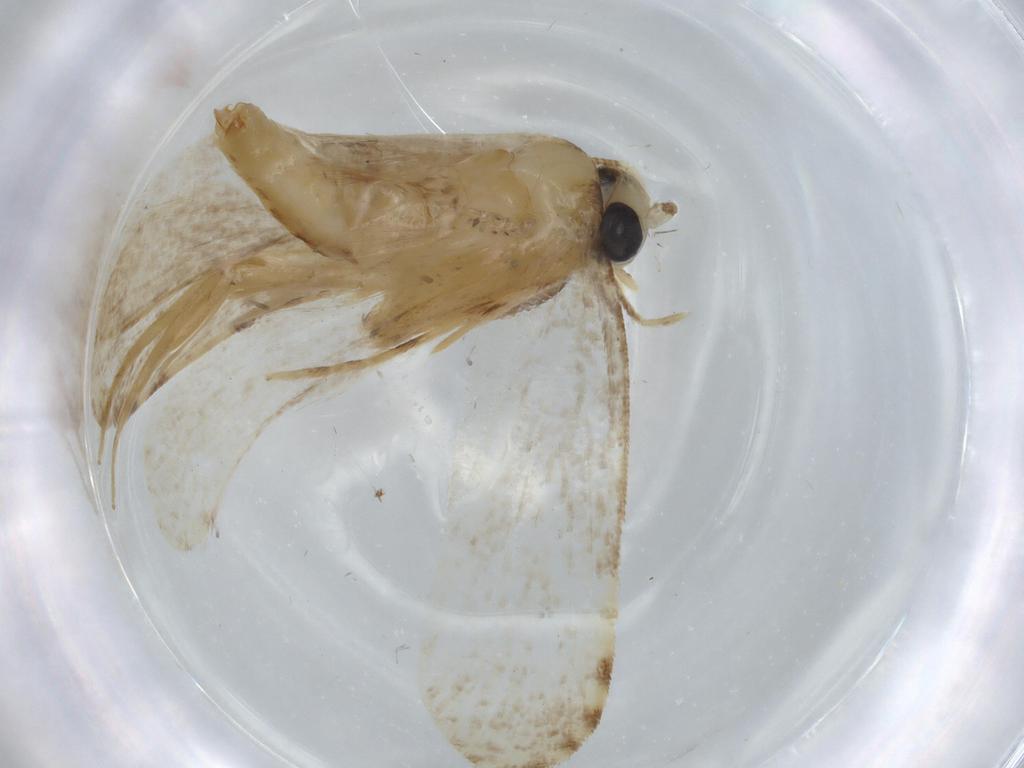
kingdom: Animalia
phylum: Arthropoda
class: Insecta
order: Lepidoptera
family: Tineidae
